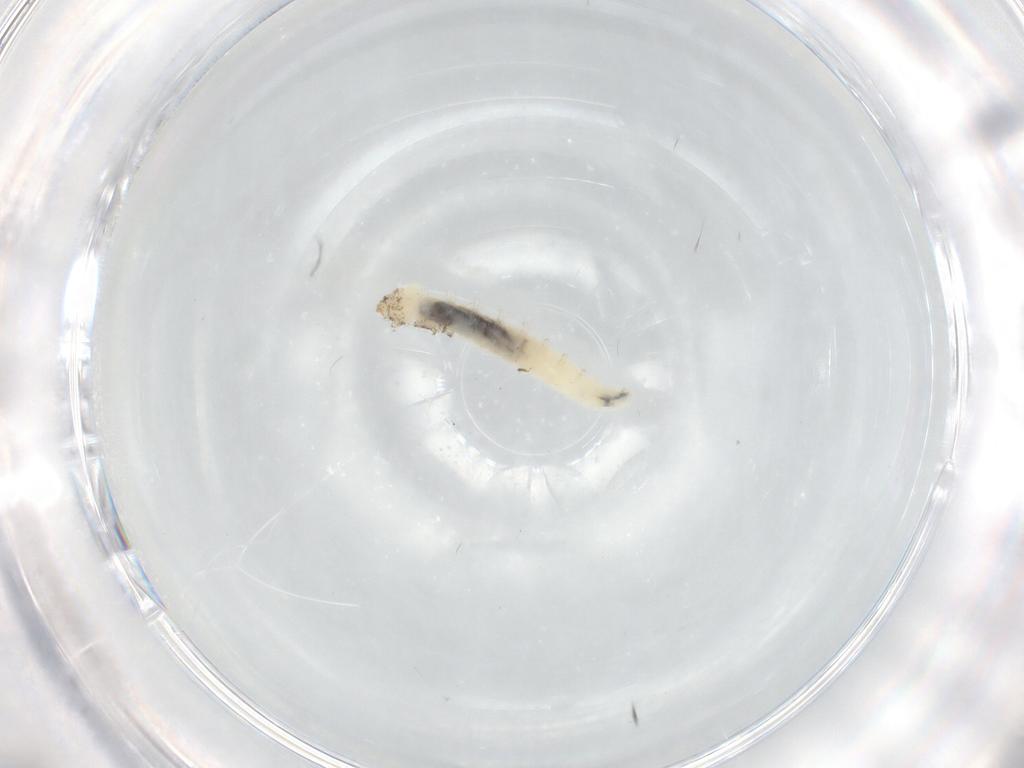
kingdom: Animalia
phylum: Arthropoda
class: Insecta
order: Diptera
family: Chironomidae
